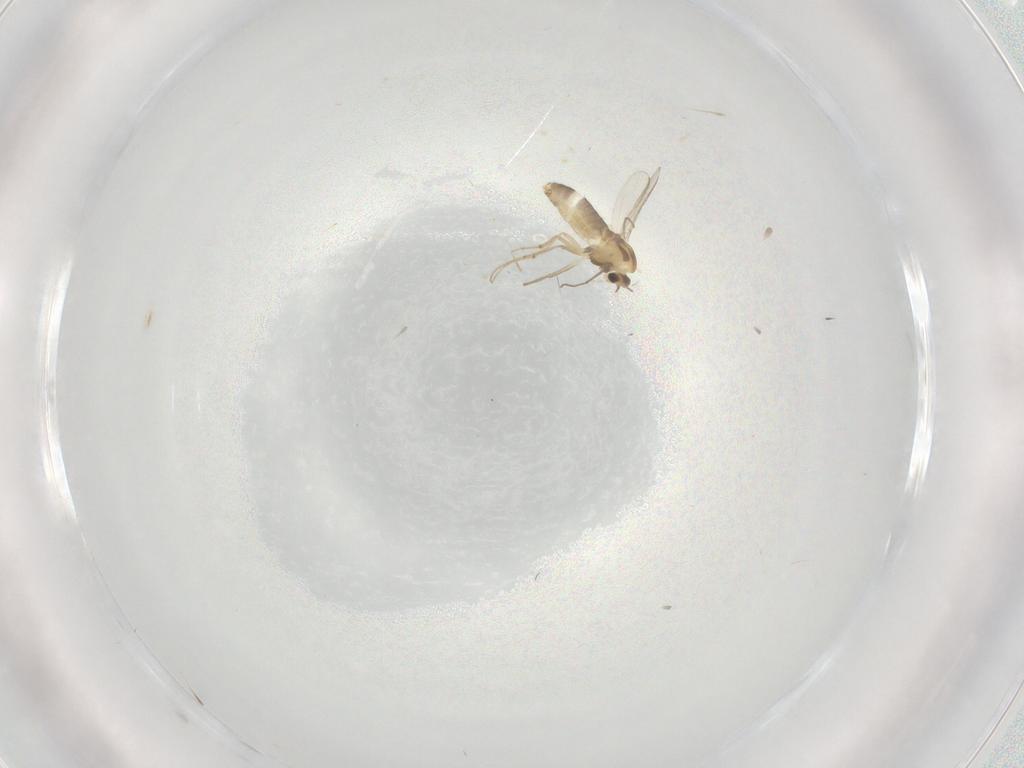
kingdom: Animalia
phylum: Arthropoda
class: Insecta
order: Diptera
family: Chironomidae
